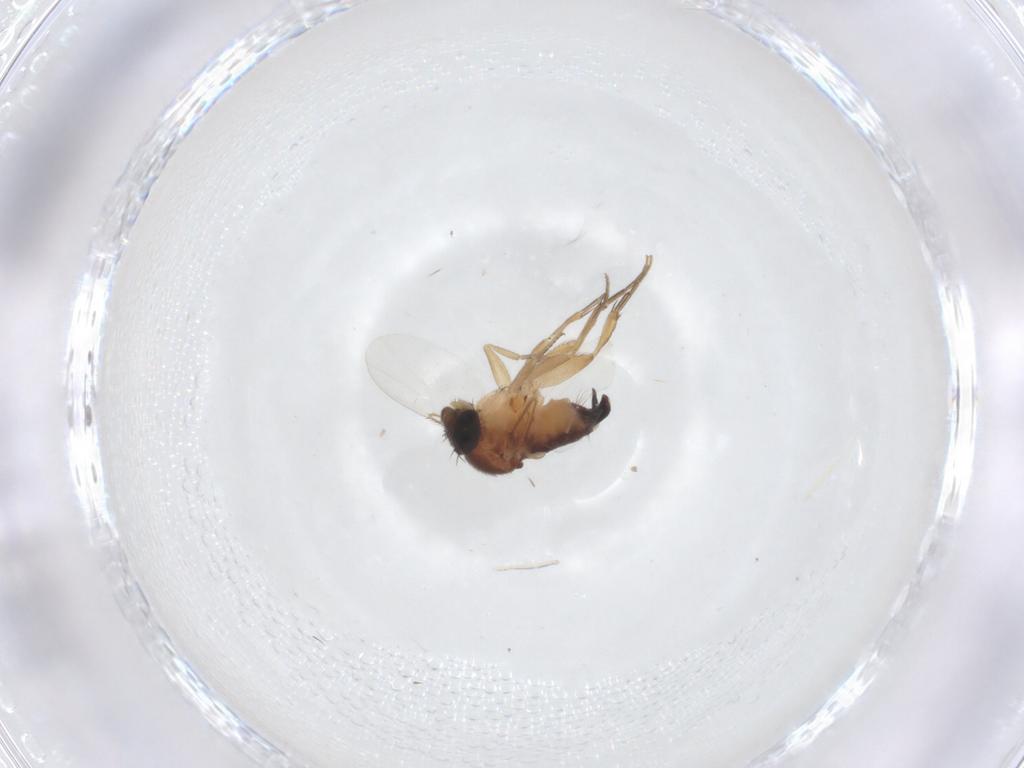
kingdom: Animalia
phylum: Arthropoda
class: Insecta
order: Diptera
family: Phoridae
